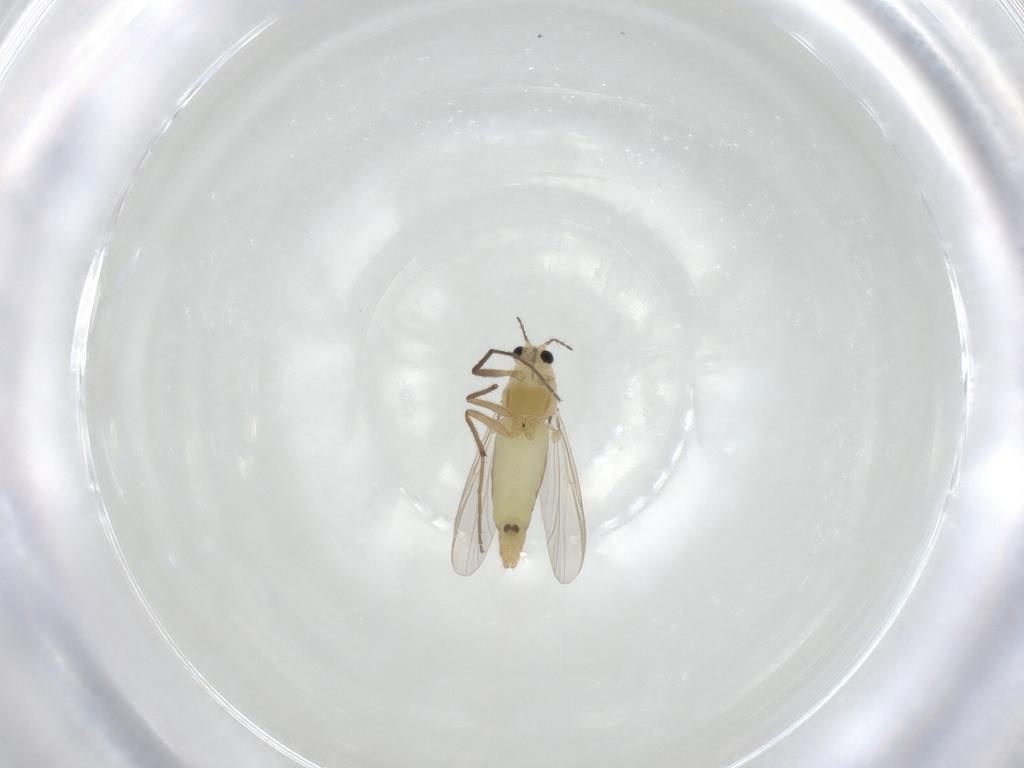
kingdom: Animalia
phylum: Arthropoda
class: Insecta
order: Diptera
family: Chironomidae
